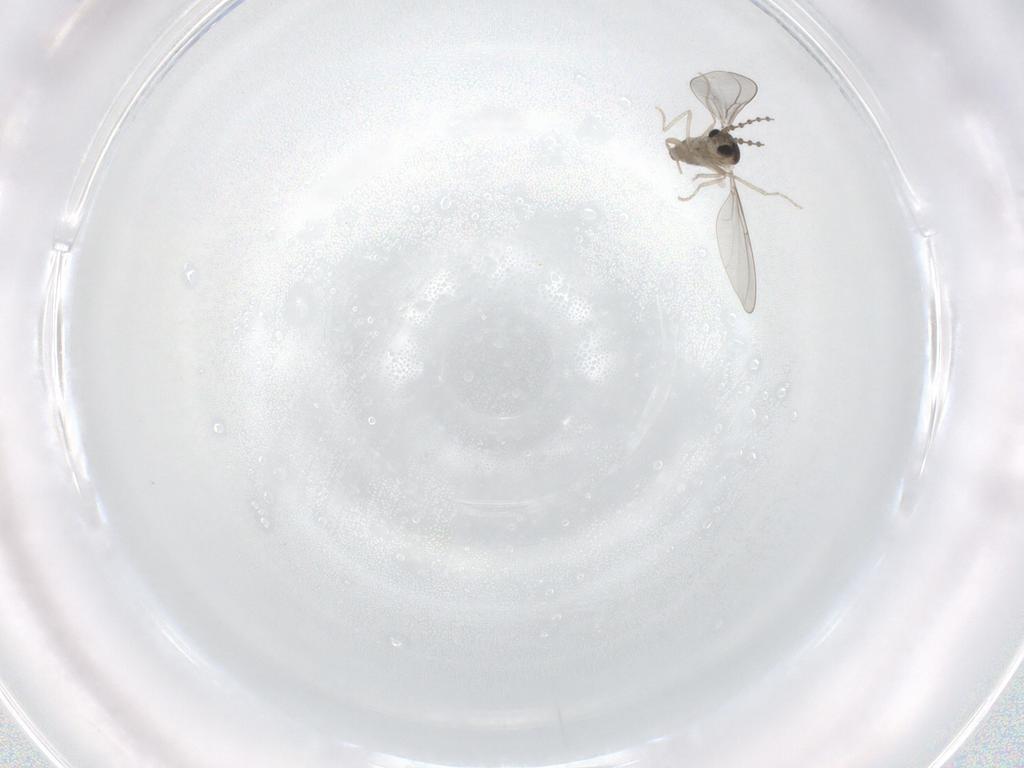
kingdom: Animalia
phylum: Arthropoda
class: Insecta
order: Diptera
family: Cecidomyiidae
